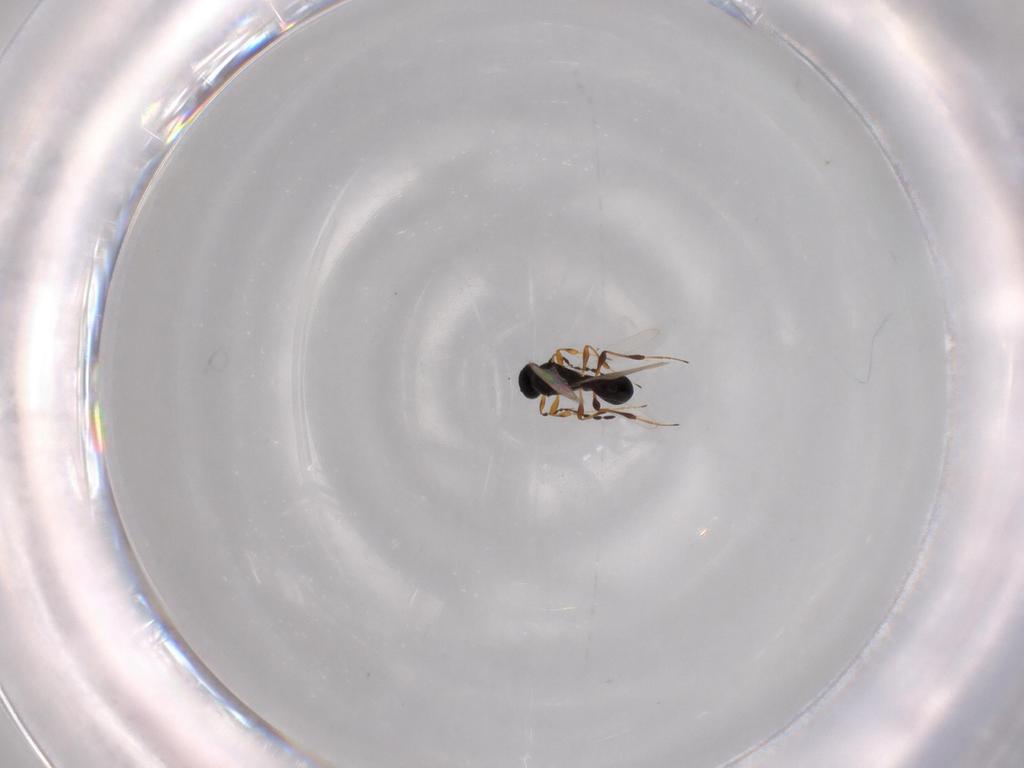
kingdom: Animalia
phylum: Arthropoda
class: Insecta
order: Hymenoptera
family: Platygastridae
